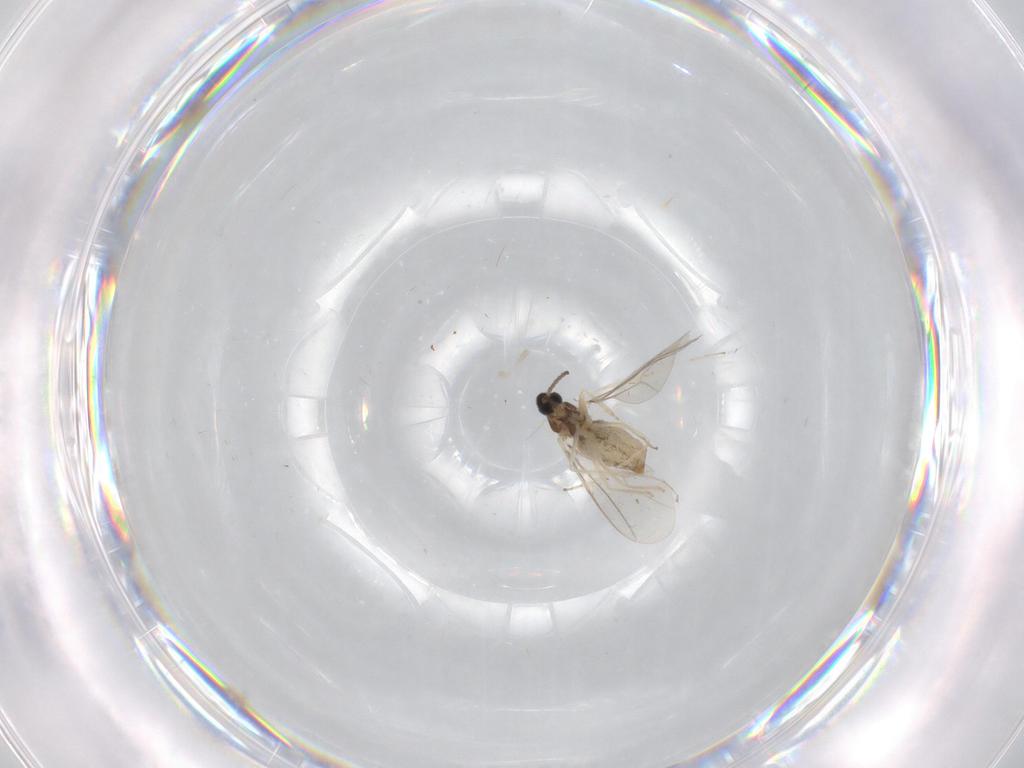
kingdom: Animalia
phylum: Arthropoda
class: Insecta
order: Diptera
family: Cecidomyiidae
